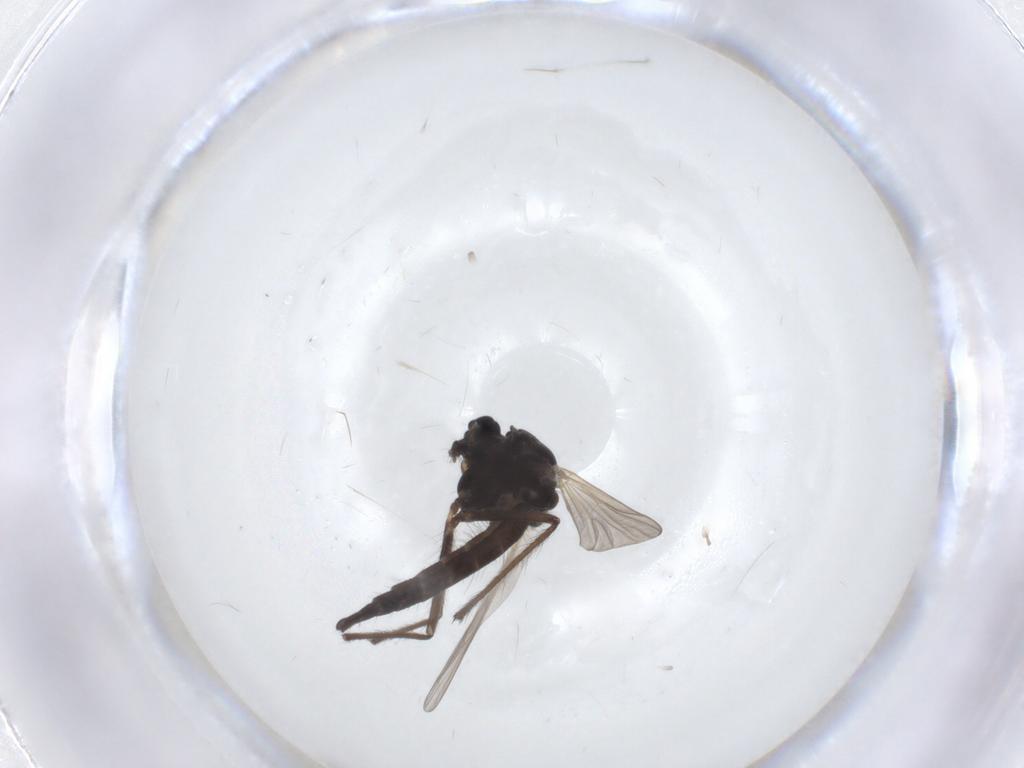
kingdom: Animalia
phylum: Arthropoda
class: Insecta
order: Diptera
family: Chironomidae
